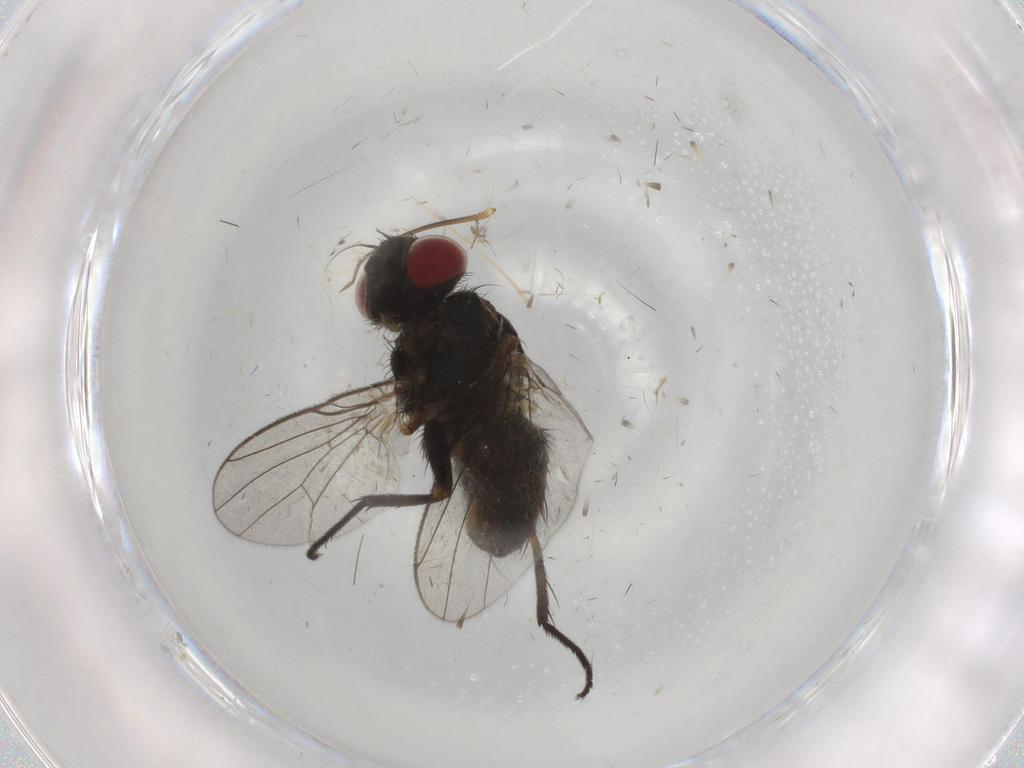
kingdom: Animalia
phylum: Arthropoda
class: Insecta
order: Diptera
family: Muscidae
